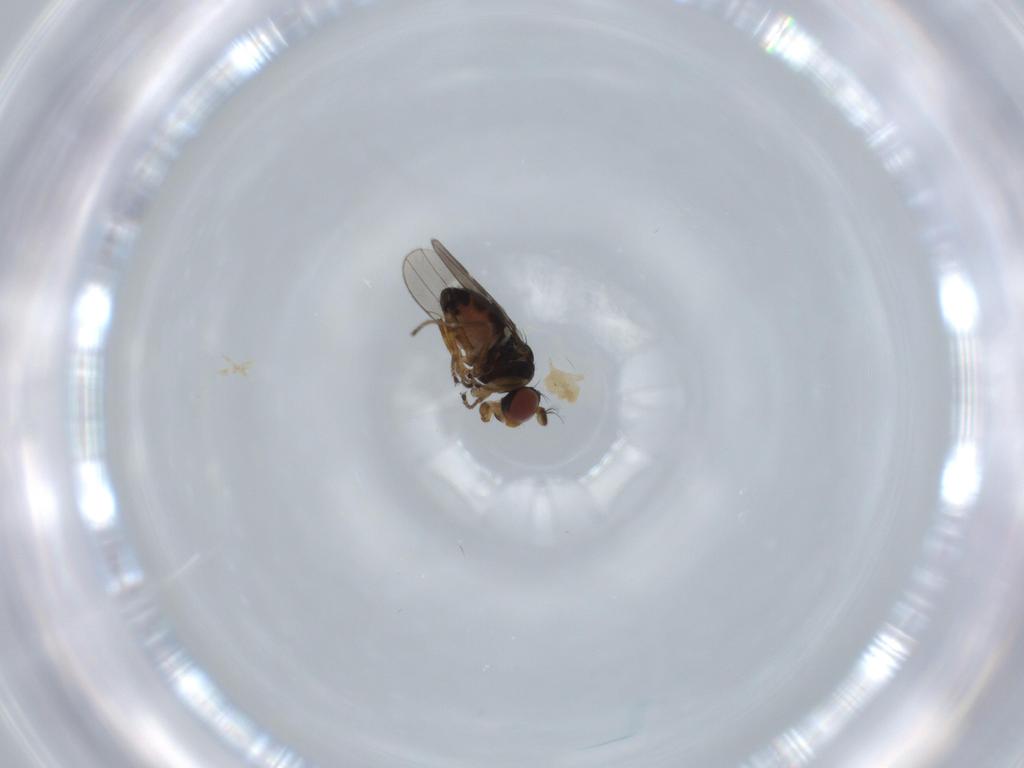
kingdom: Animalia
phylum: Arthropoda
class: Insecta
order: Diptera
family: Ephydridae
